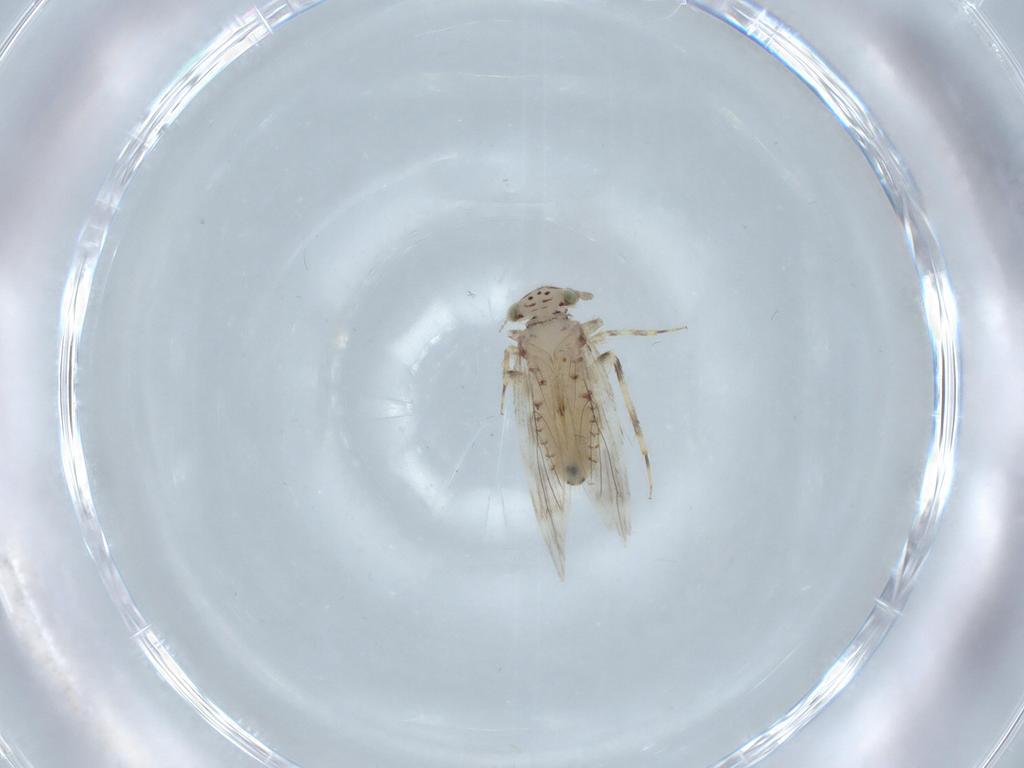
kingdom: Animalia
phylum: Arthropoda
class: Insecta
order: Psocodea
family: Lepidopsocidae
